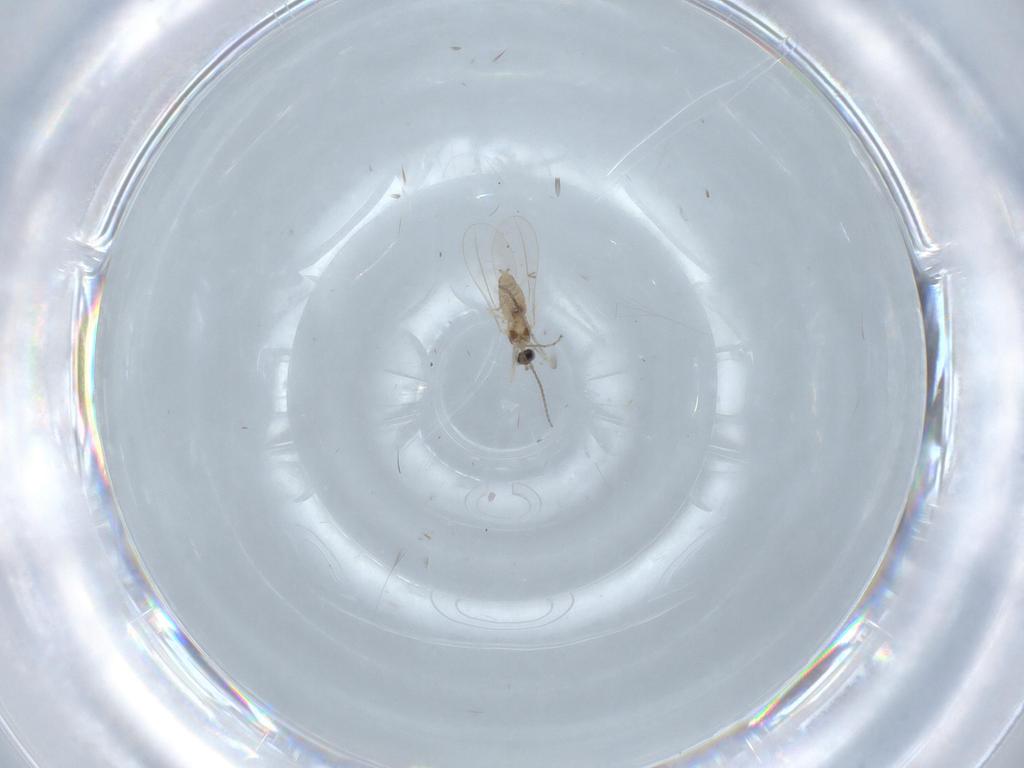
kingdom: Animalia
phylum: Arthropoda
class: Insecta
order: Diptera
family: Cecidomyiidae
